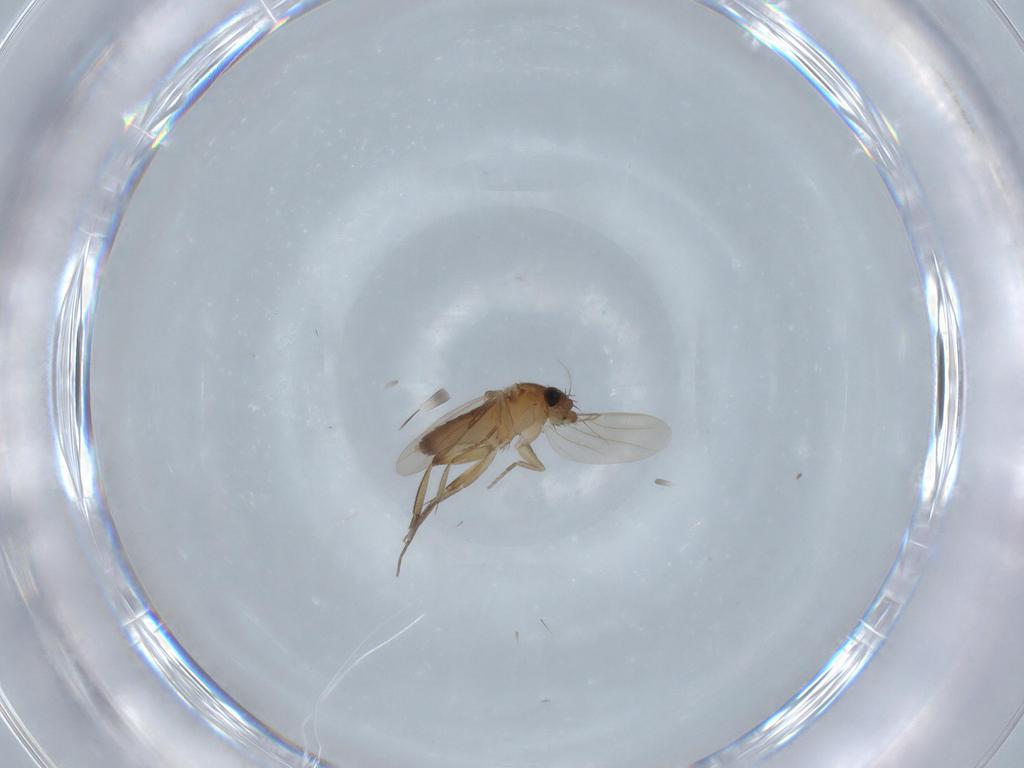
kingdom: Animalia
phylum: Arthropoda
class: Insecta
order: Diptera
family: Phoridae
